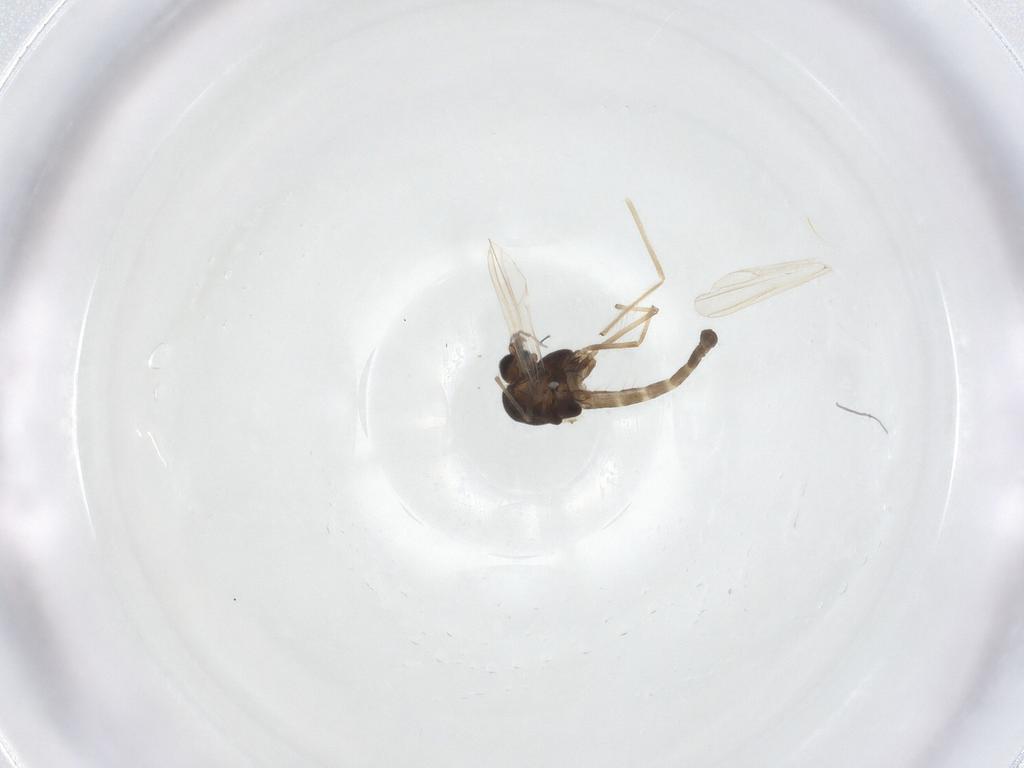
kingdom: Animalia
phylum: Arthropoda
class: Insecta
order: Diptera
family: Chironomidae
